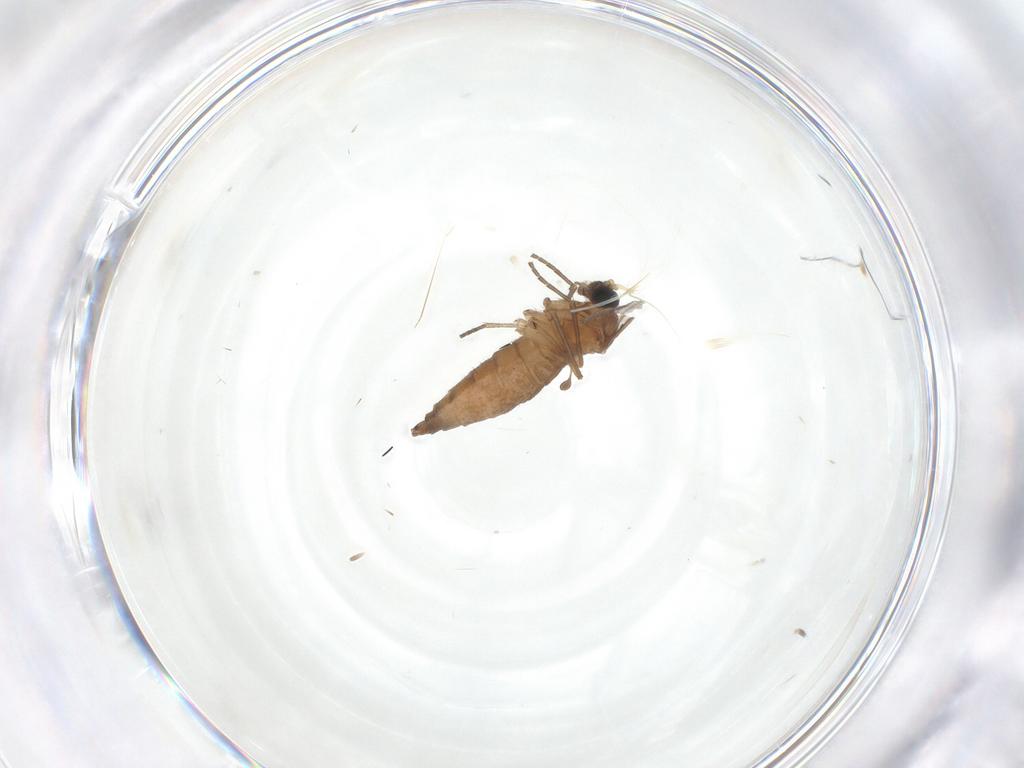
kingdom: Animalia
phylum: Arthropoda
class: Insecta
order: Diptera
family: Sciaridae
